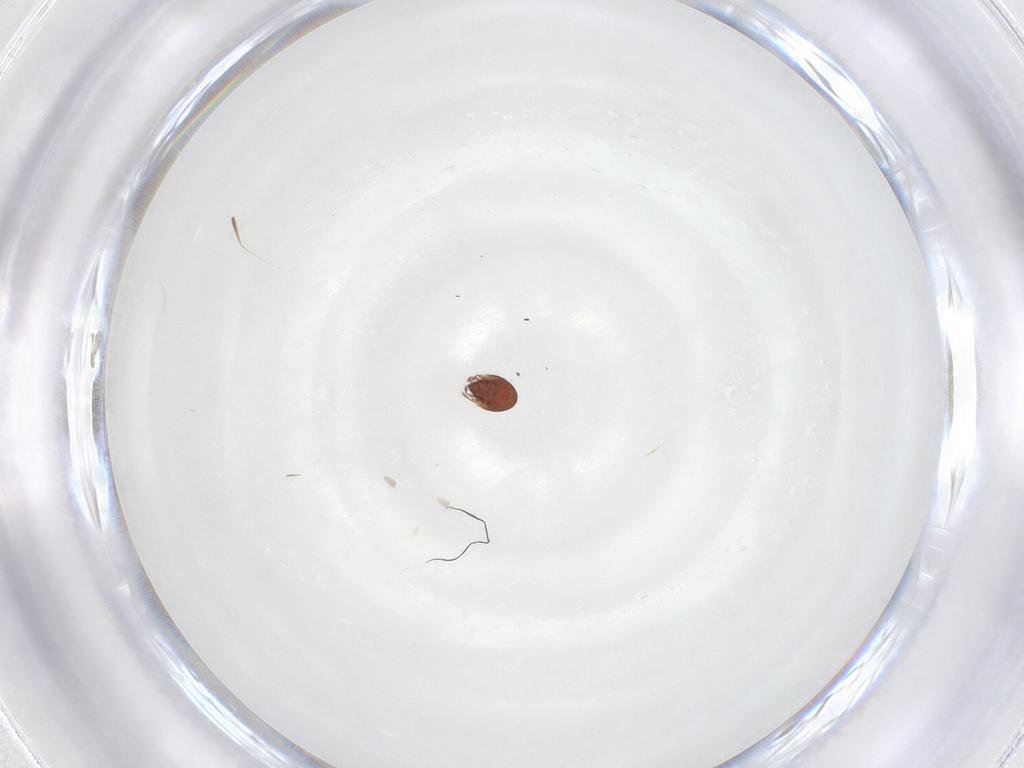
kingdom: Animalia
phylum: Arthropoda
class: Arachnida
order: Sarcoptiformes
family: Scheloribatidae
